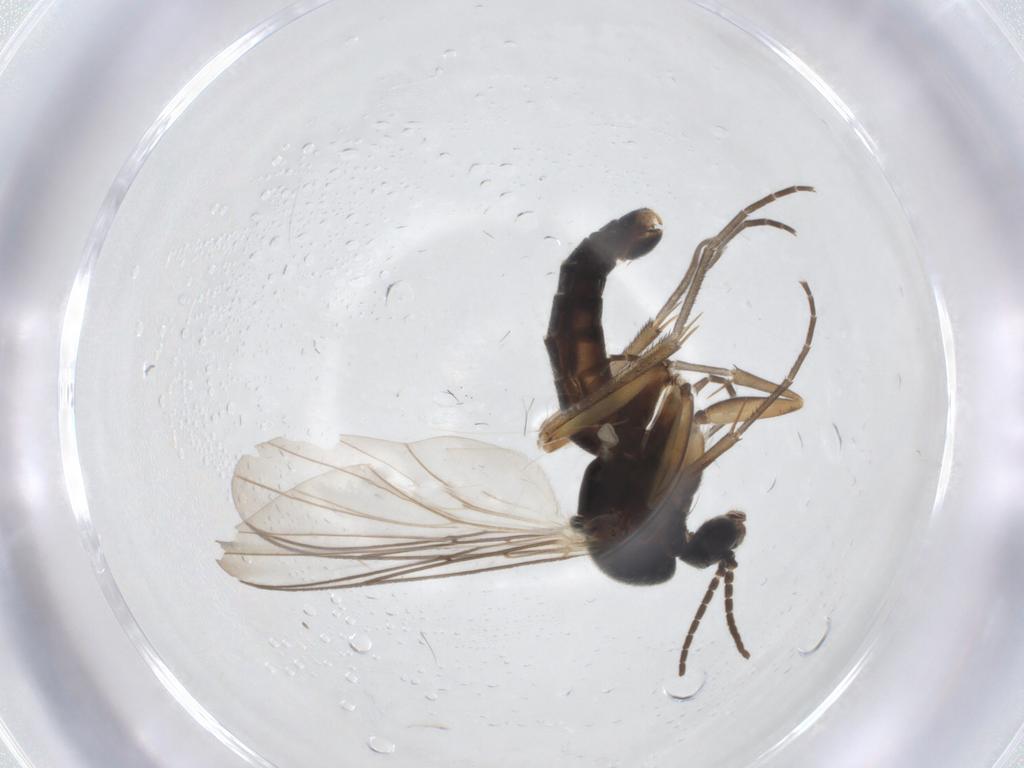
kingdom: Animalia
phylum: Arthropoda
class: Insecta
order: Diptera
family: Mycetophilidae
